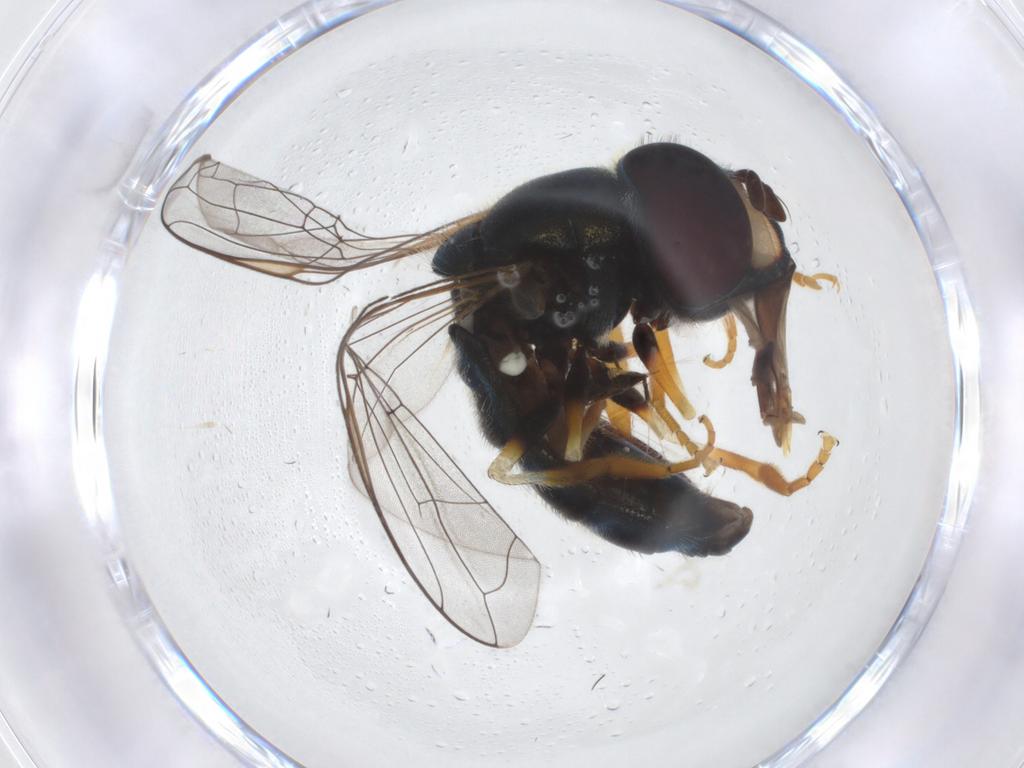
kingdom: Animalia
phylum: Arthropoda
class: Insecta
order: Diptera
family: Syrphidae
